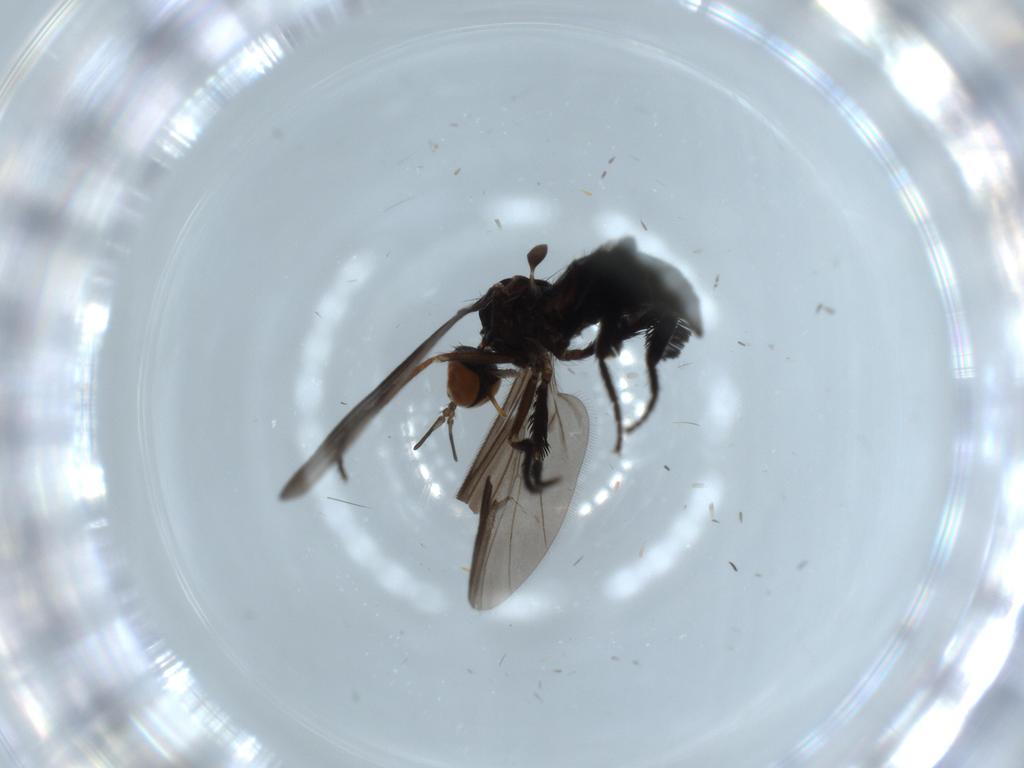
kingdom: Animalia
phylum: Arthropoda
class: Insecta
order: Diptera
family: Empididae
